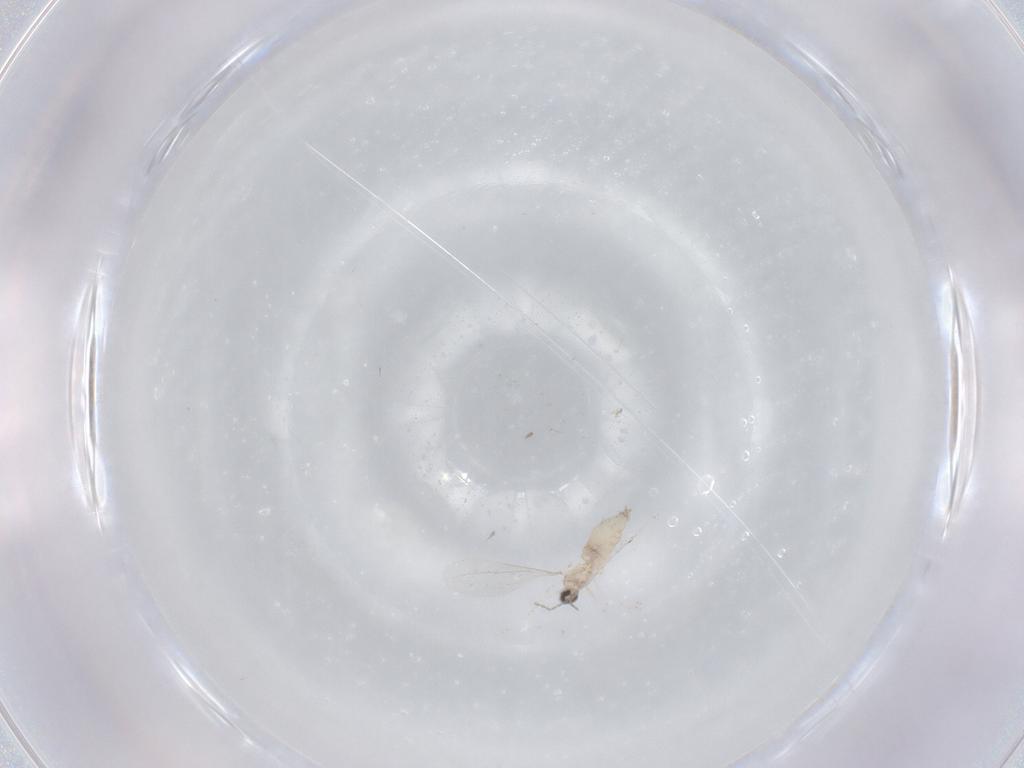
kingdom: Animalia
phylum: Arthropoda
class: Insecta
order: Diptera
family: Cecidomyiidae
